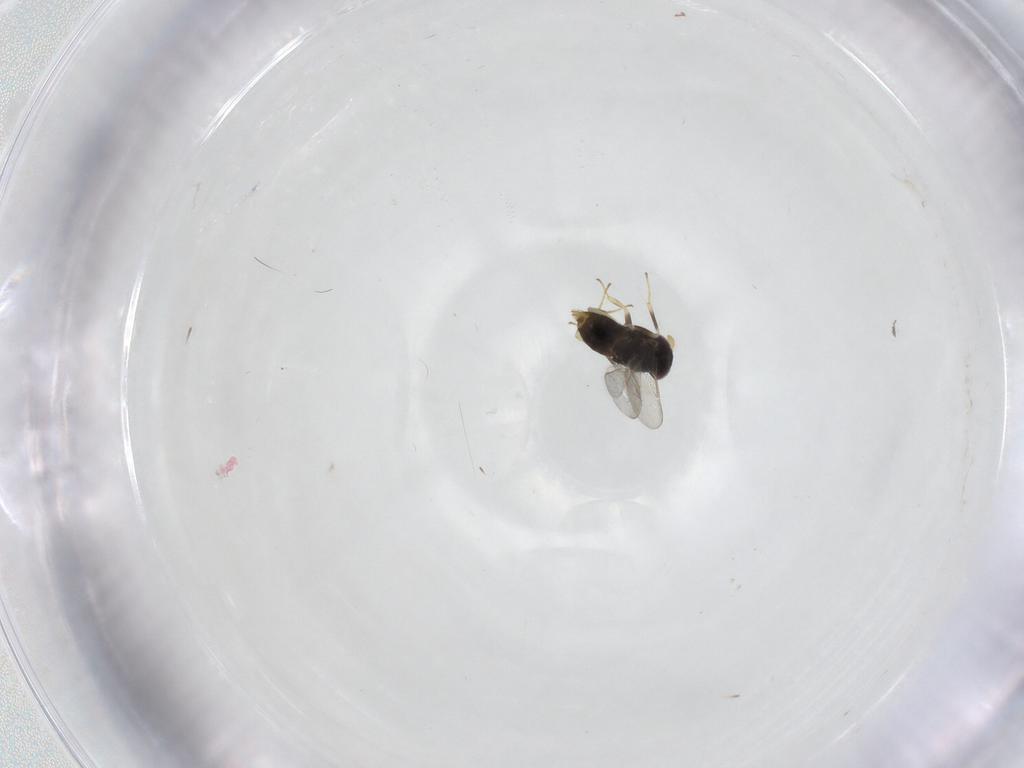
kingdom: Animalia
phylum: Arthropoda
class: Insecta
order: Hymenoptera
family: Aphelinidae
